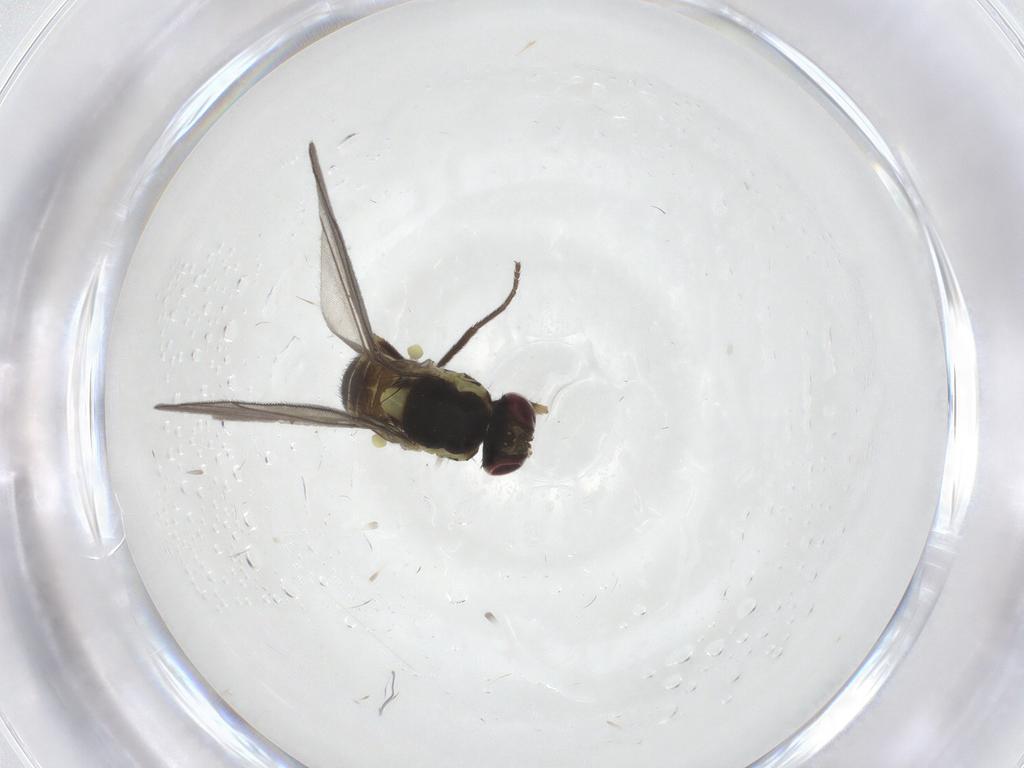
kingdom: Animalia
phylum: Arthropoda
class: Insecta
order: Diptera
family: Agromyzidae
